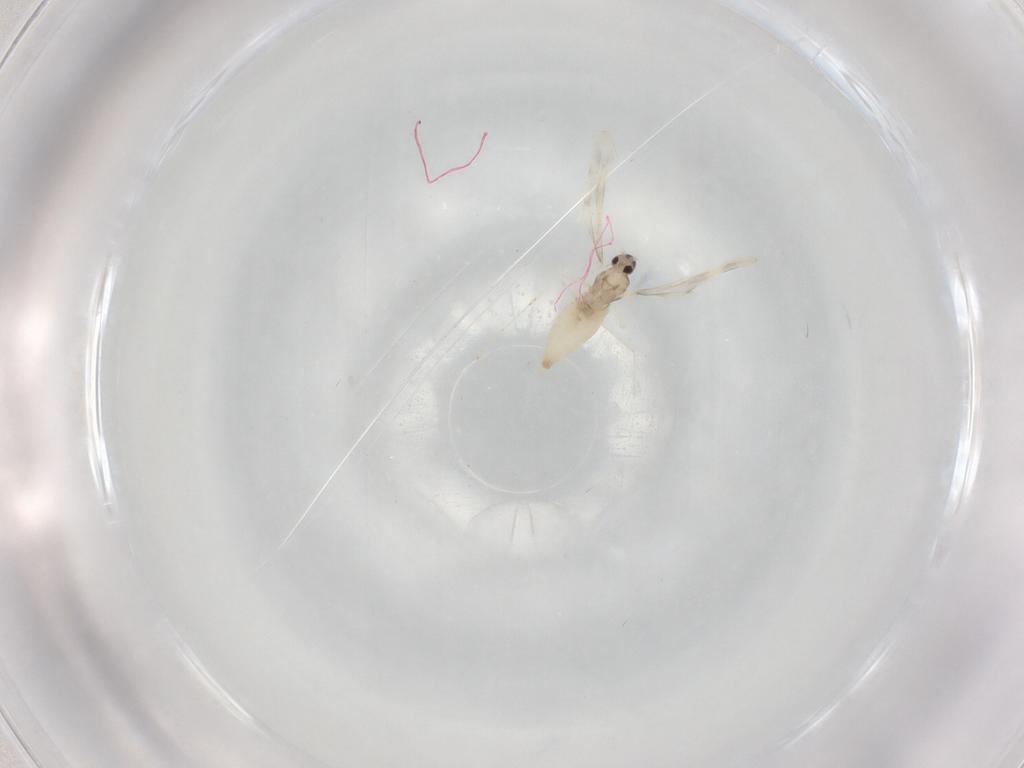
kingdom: Animalia
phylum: Arthropoda
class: Insecta
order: Diptera
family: Cecidomyiidae
